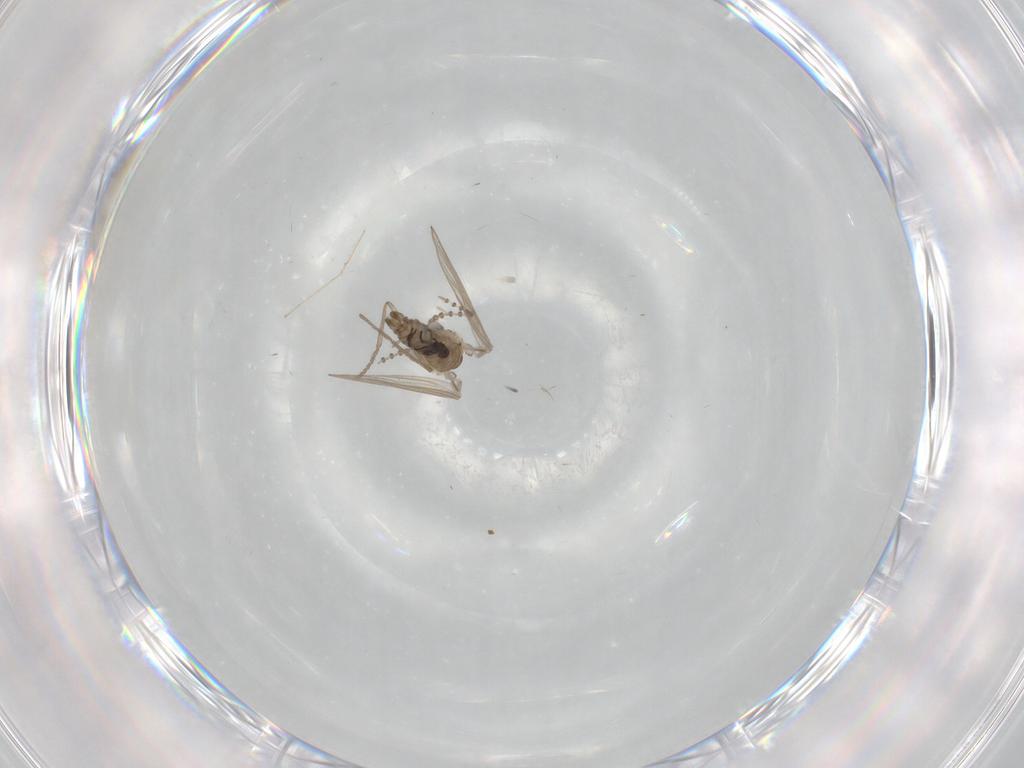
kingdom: Animalia
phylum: Arthropoda
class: Insecta
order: Diptera
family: Psychodidae
